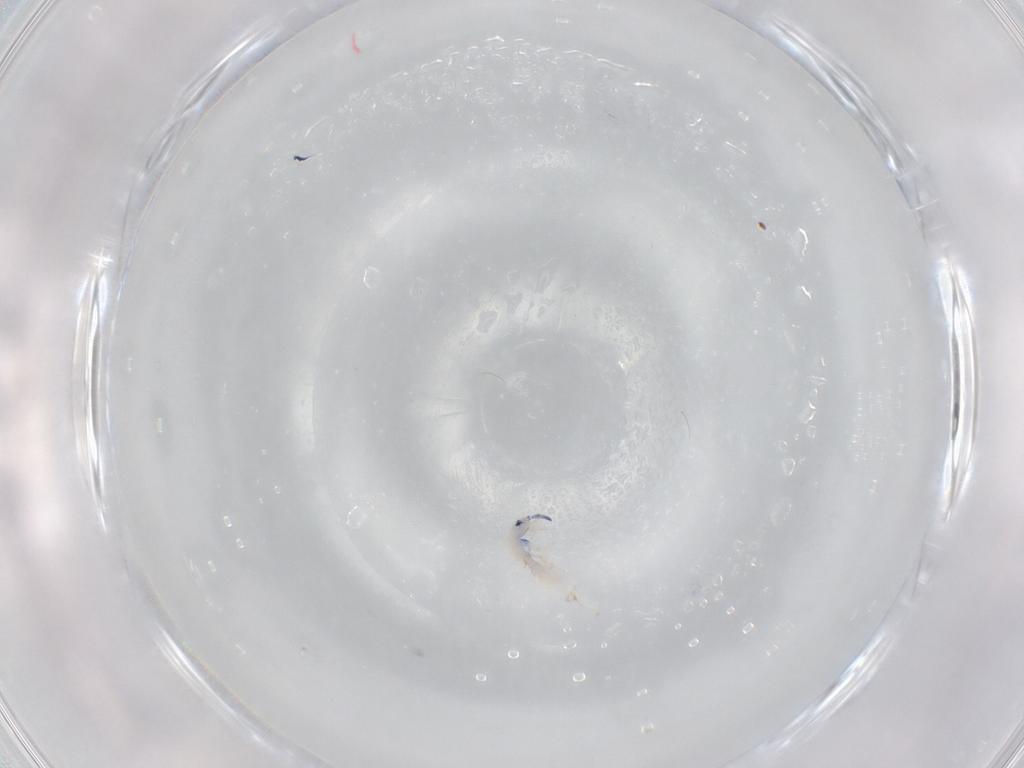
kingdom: Animalia
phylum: Arthropoda
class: Collembola
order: Entomobryomorpha
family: Entomobryidae
